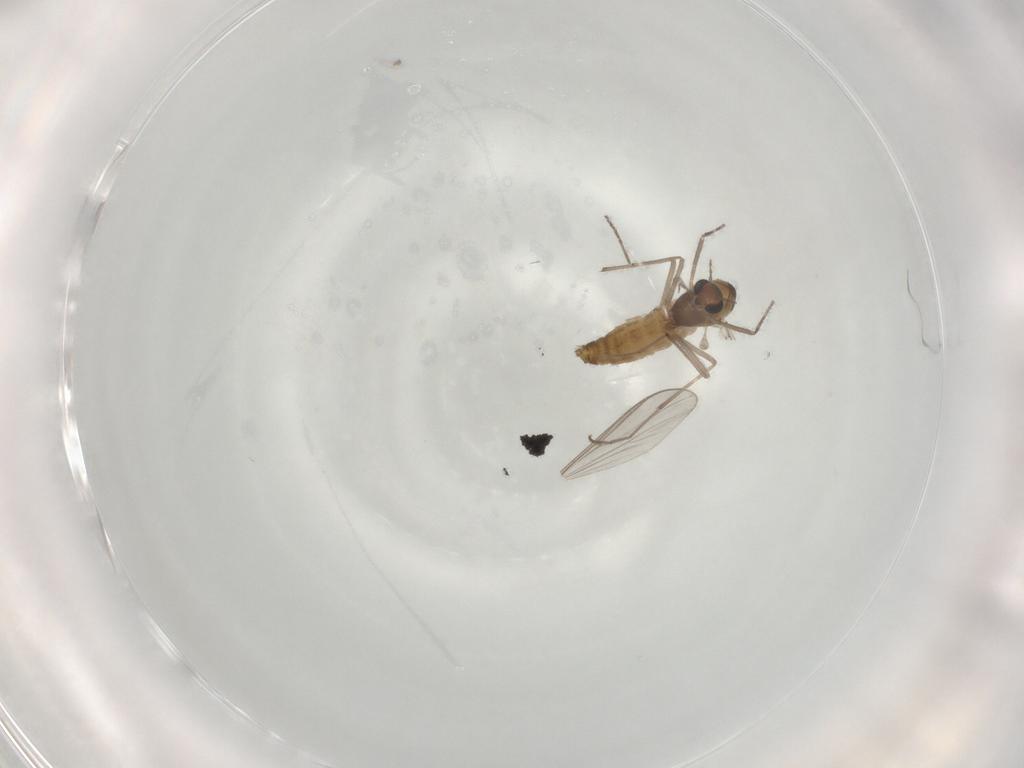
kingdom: Animalia
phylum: Arthropoda
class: Insecta
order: Diptera
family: Chironomidae
